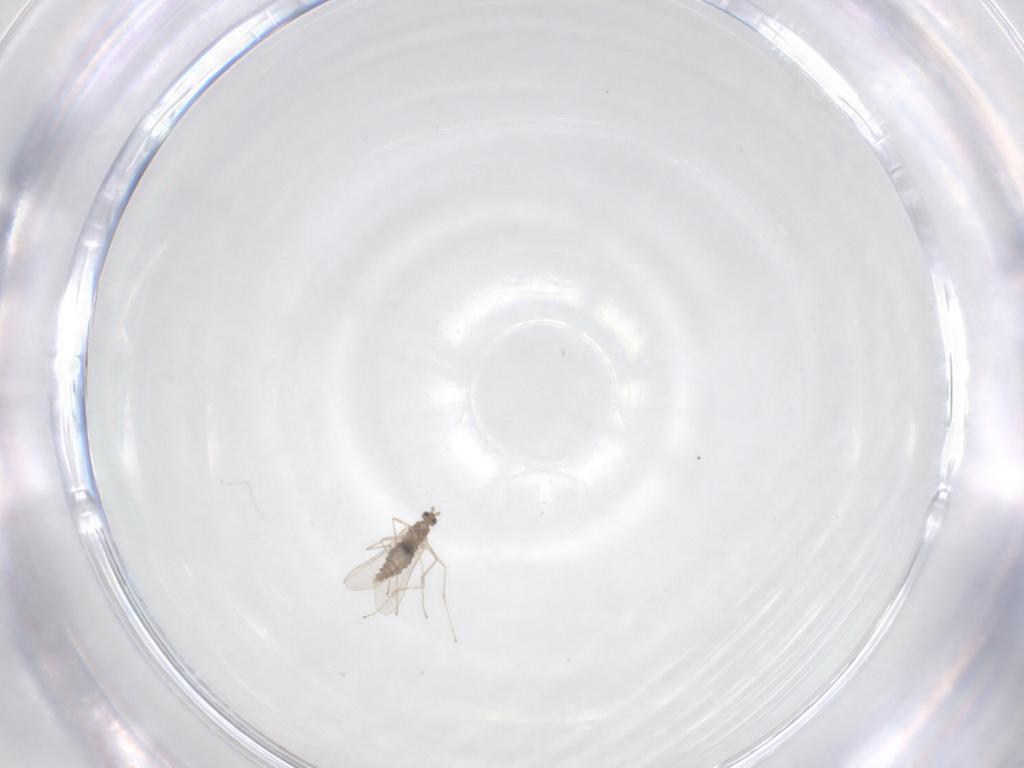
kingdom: Animalia
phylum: Arthropoda
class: Insecta
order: Diptera
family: Cecidomyiidae
